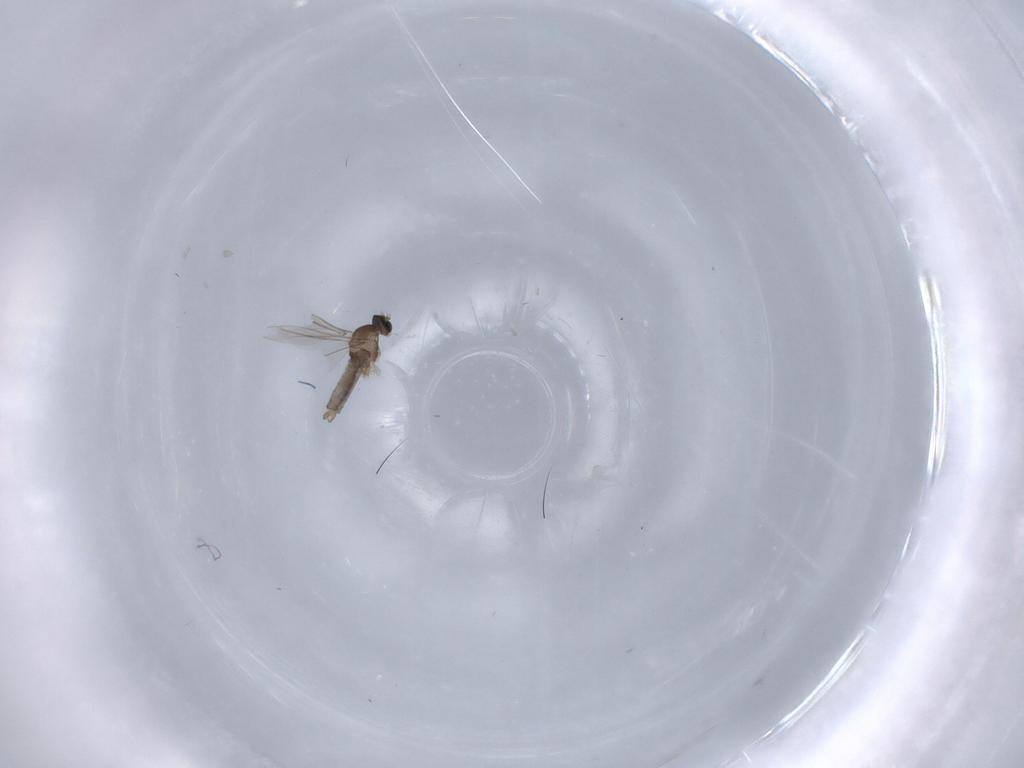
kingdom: Animalia
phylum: Arthropoda
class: Insecta
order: Diptera
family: Cecidomyiidae
